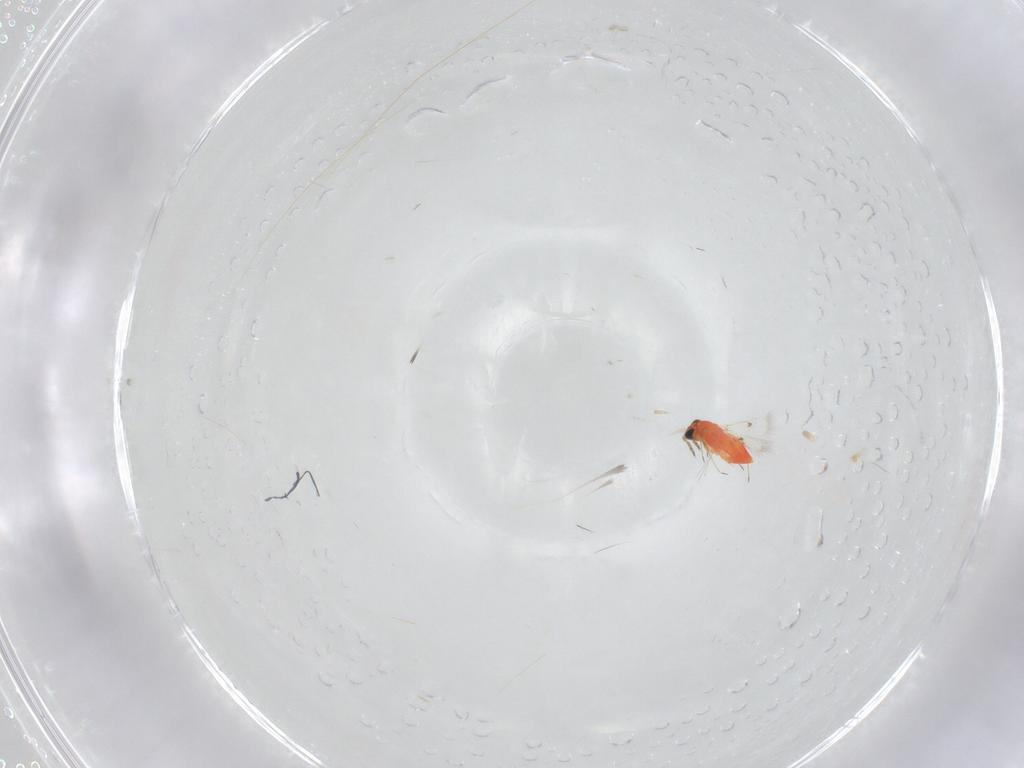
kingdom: Animalia
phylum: Arthropoda
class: Insecta
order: Hymenoptera
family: Trichogrammatidae
